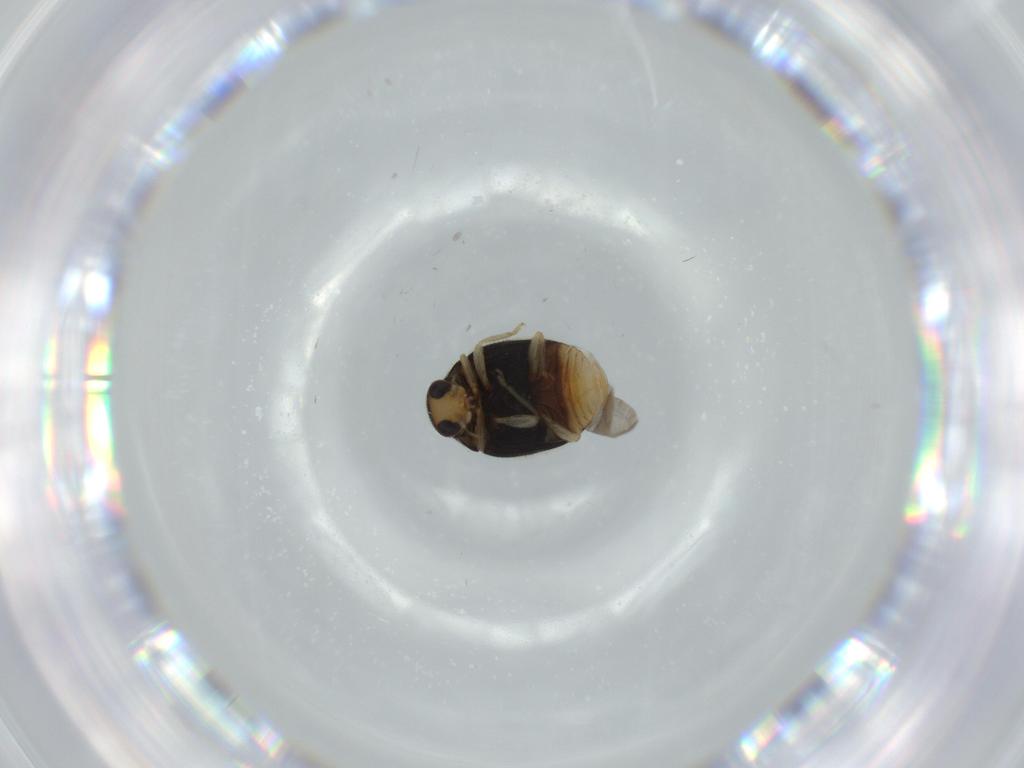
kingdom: Animalia
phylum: Arthropoda
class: Insecta
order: Coleoptera
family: Coccinellidae
